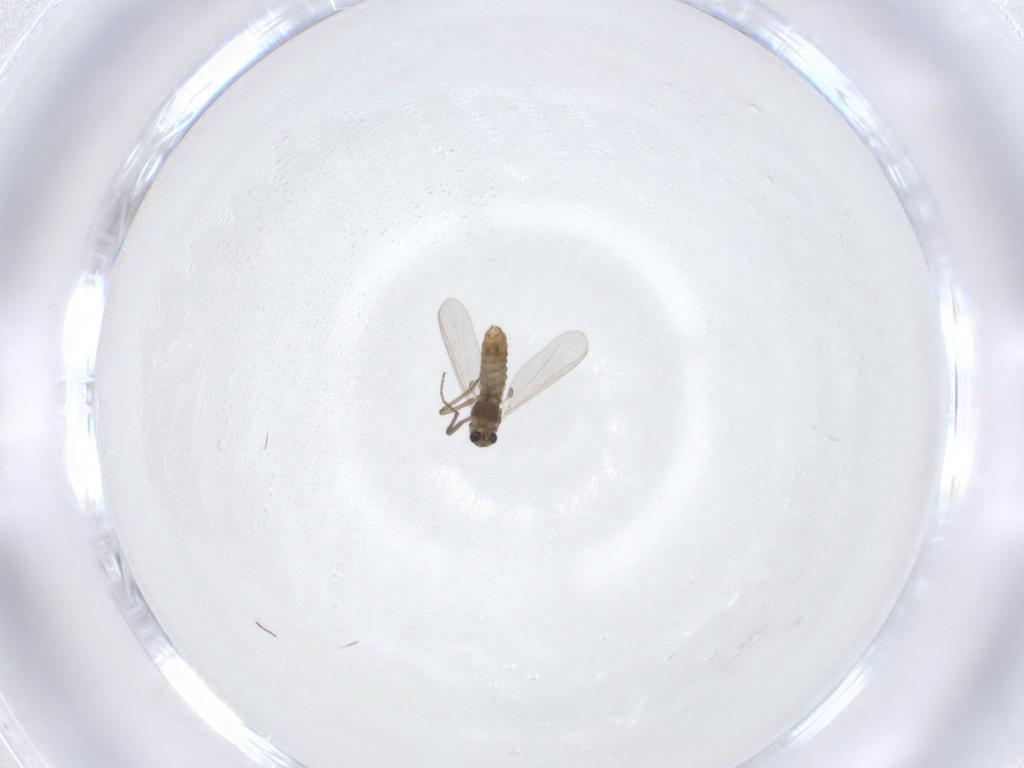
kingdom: Animalia
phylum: Arthropoda
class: Insecta
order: Diptera
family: Chironomidae
